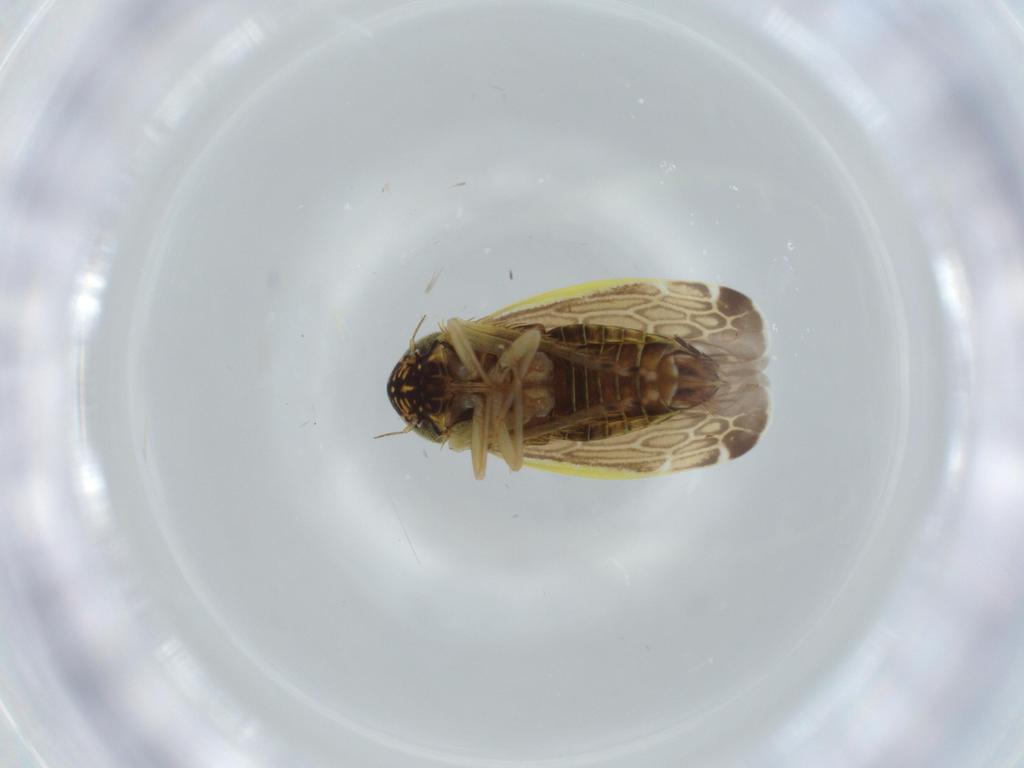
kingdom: Animalia
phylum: Arthropoda
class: Insecta
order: Hemiptera
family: Cicadellidae
